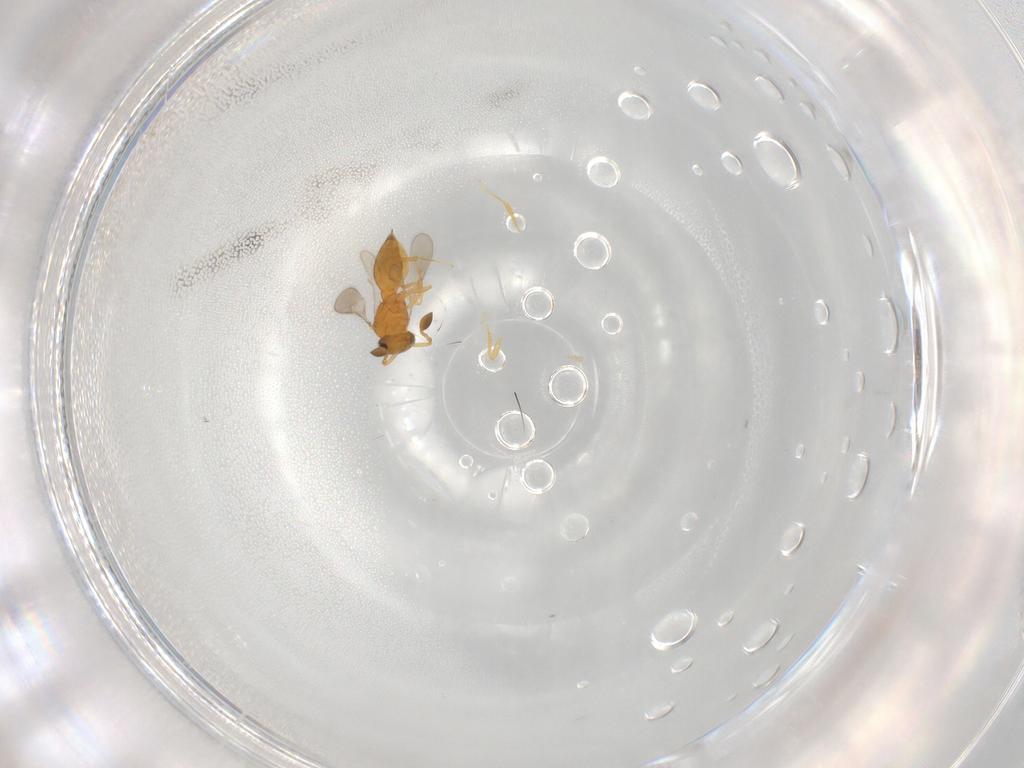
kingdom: Animalia
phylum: Arthropoda
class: Insecta
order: Hymenoptera
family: Scelionidae
